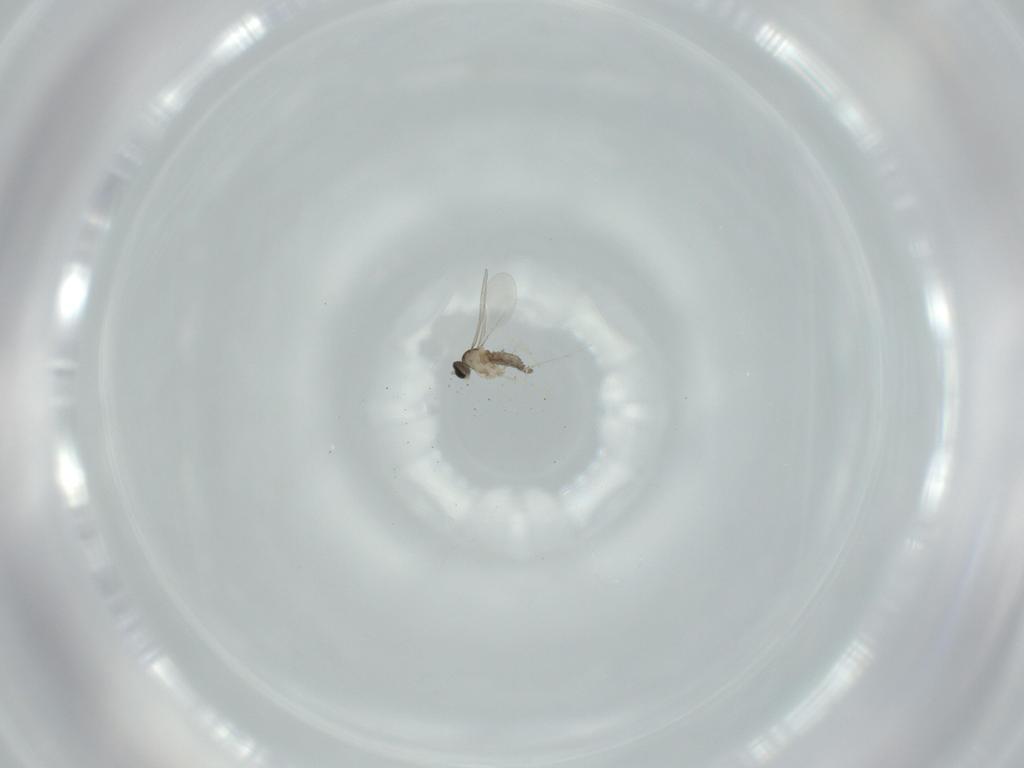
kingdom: Animalia
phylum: Arthropoda
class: Insecta
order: Diptera
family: Cecidomyiidae
